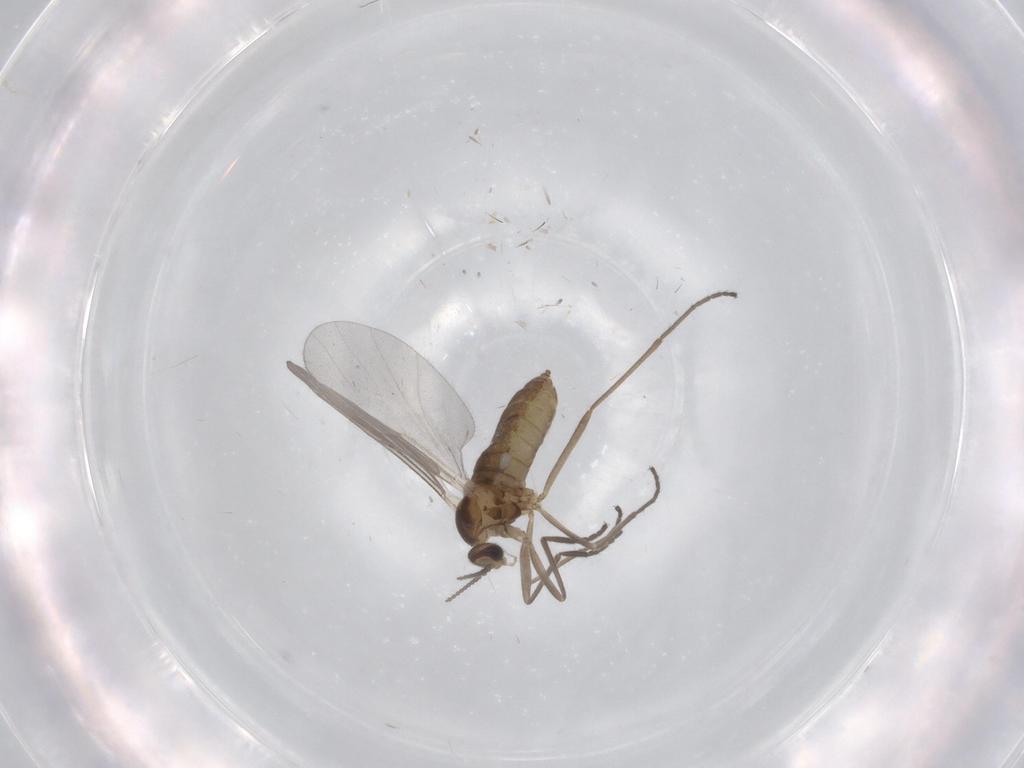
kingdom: Animalia
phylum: Arthropoda
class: Insecta
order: Diptera
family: Cecidomyiidae
